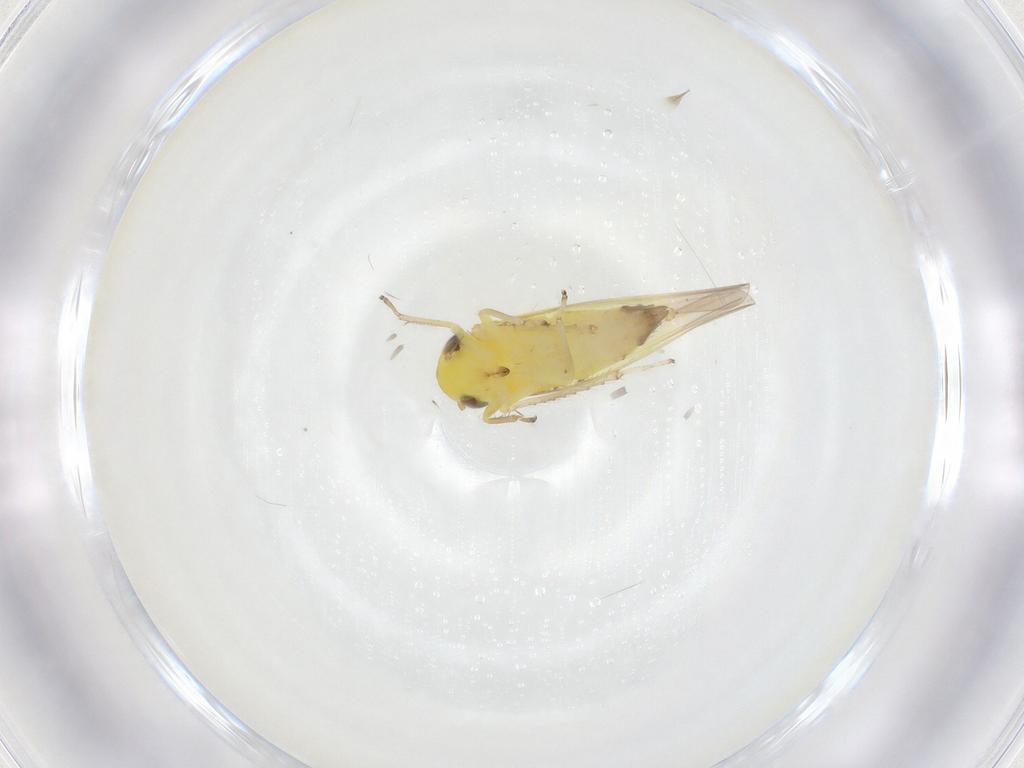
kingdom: Animalia
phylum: Arthropoda
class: Insecta
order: Hemiptera
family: Cicadellidae
